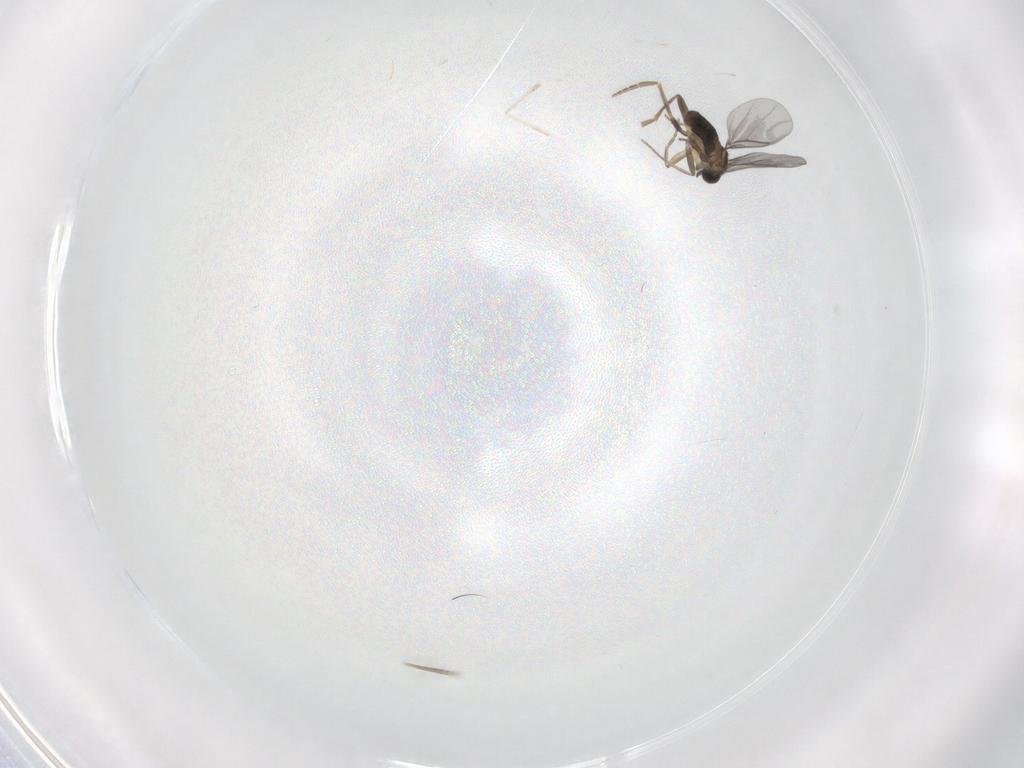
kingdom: Animalia
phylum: Arthropoda
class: Insecta
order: Diptera
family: Phoridae
